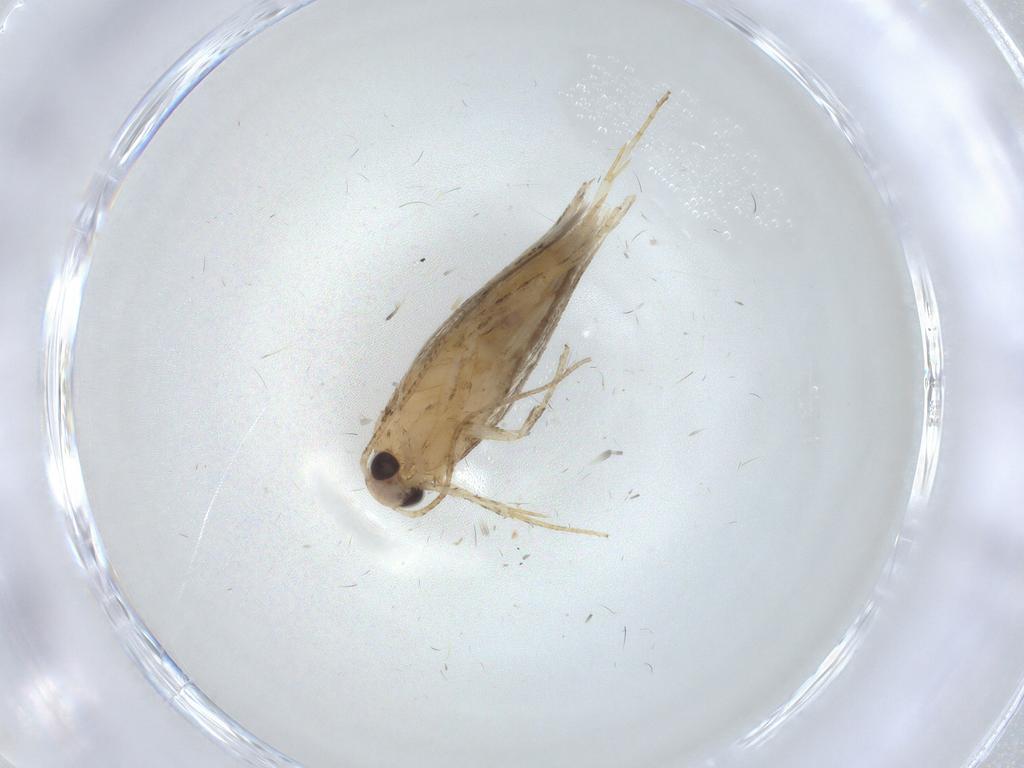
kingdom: Animalia
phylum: Arthropoda
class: Insecta
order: Lepidoptera
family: Gelechiidae
